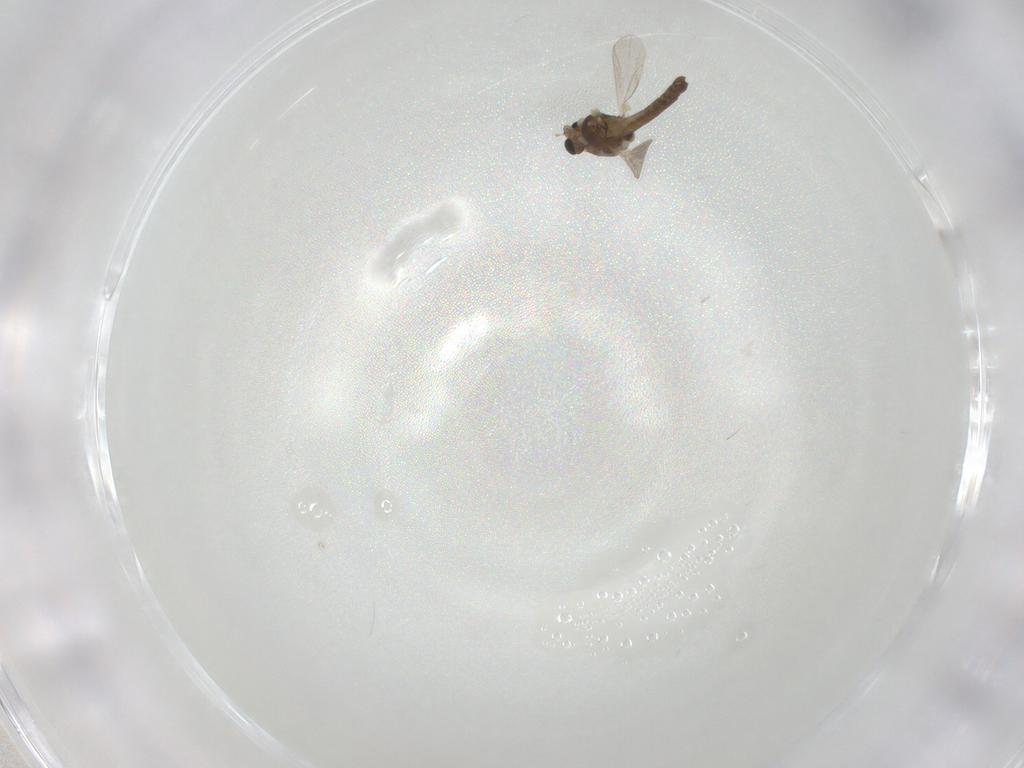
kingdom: Animalia
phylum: Arthropoda
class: Insecta
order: Diptera
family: Chironomidae
